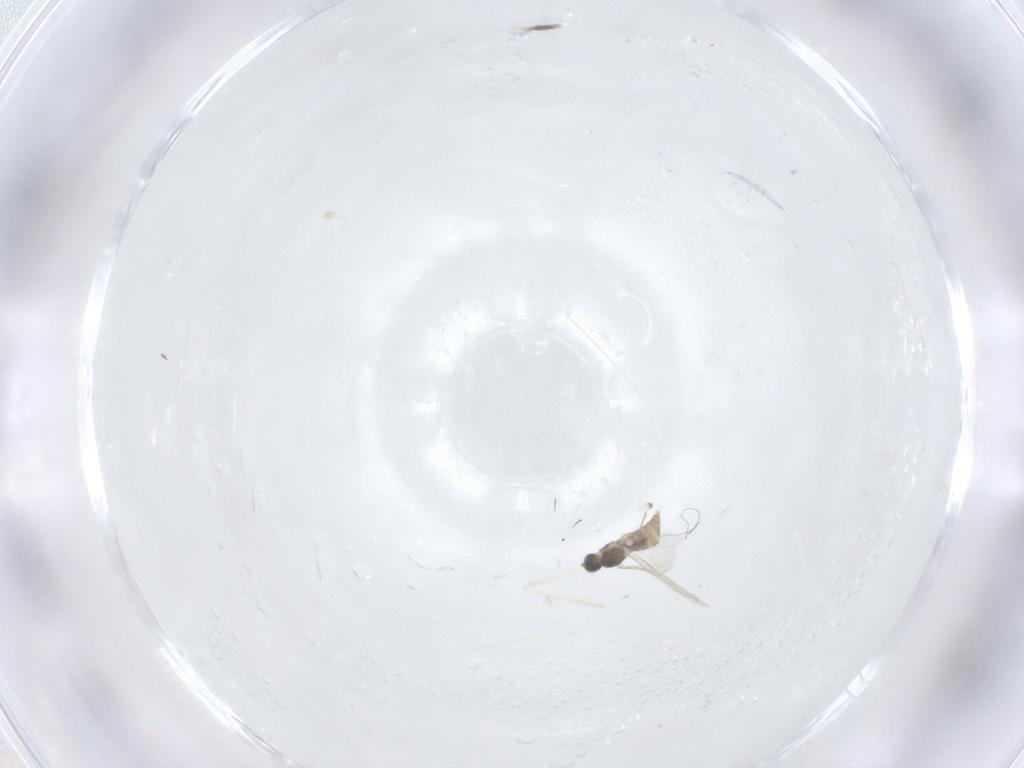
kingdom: Animalia
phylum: Arthropoda
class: Insecta
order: Diptera
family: Cecidomyiidae
